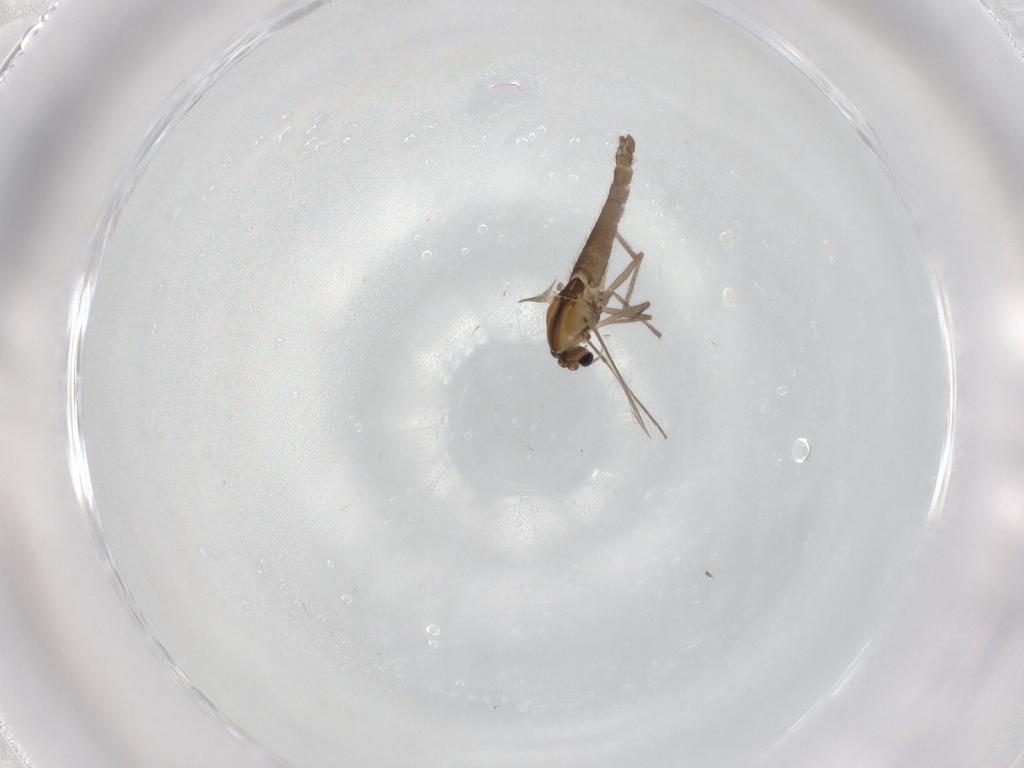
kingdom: Animalia
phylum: Arthropoda
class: Insecta
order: Diptera
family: Chironomidae
